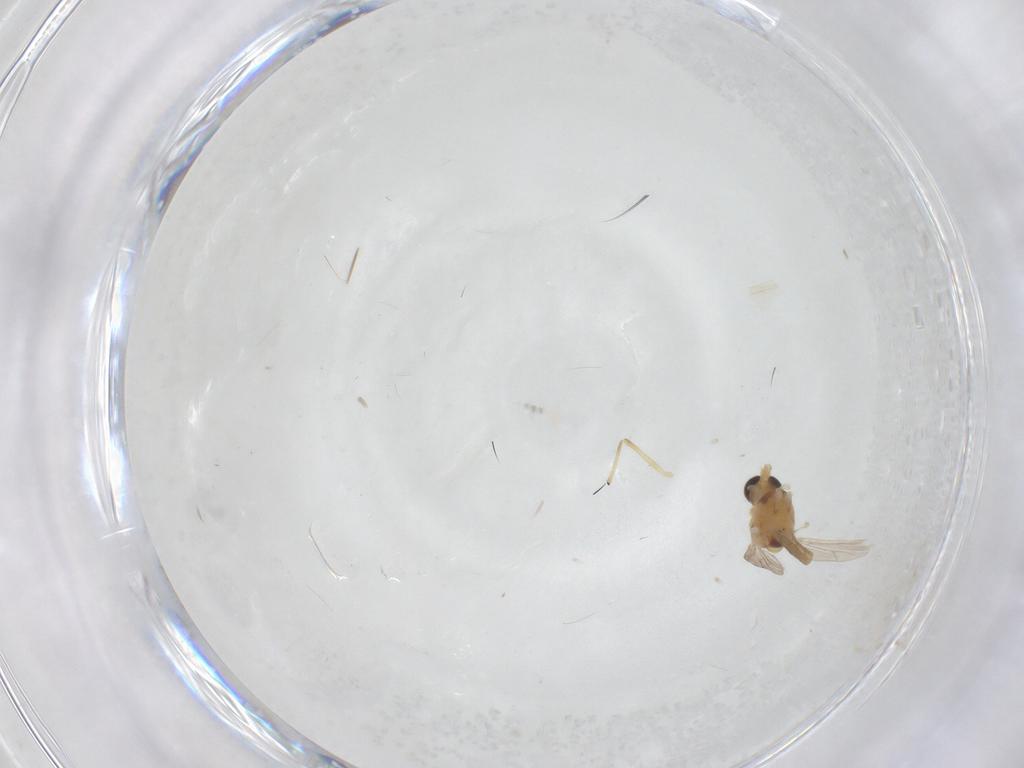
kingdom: Animalia
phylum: Arthropoda
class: Insecta
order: Diptera
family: Chironomidae
